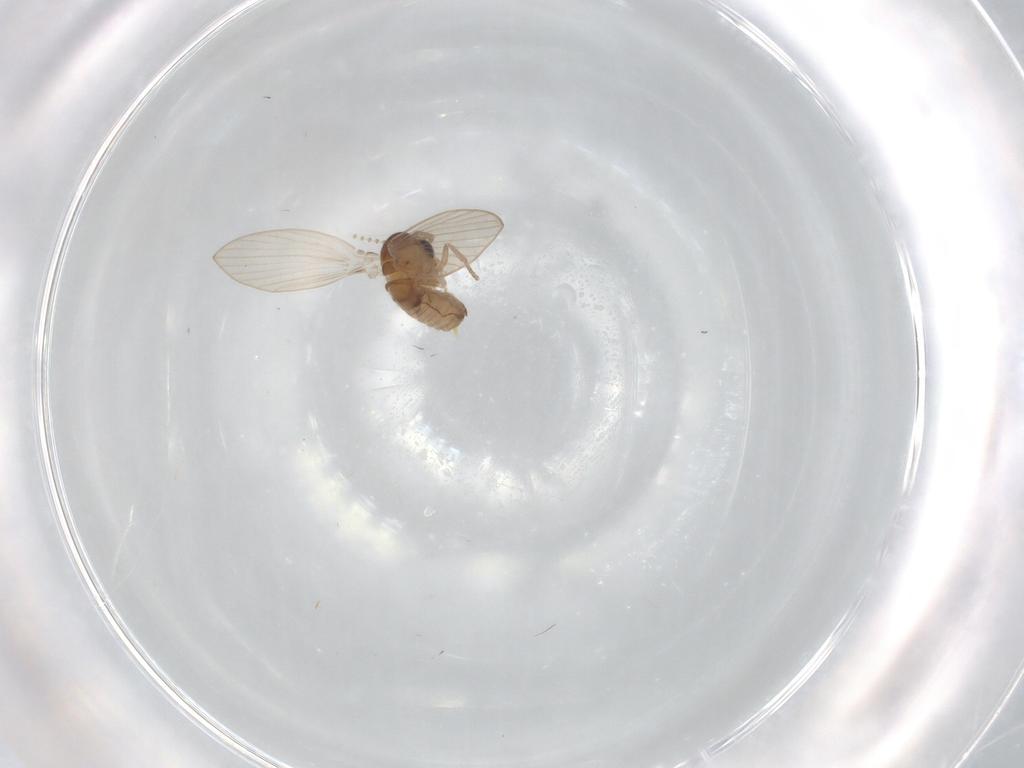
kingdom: Animalia
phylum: Arthropoda
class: Insecta
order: Diptera
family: Psychodidae
